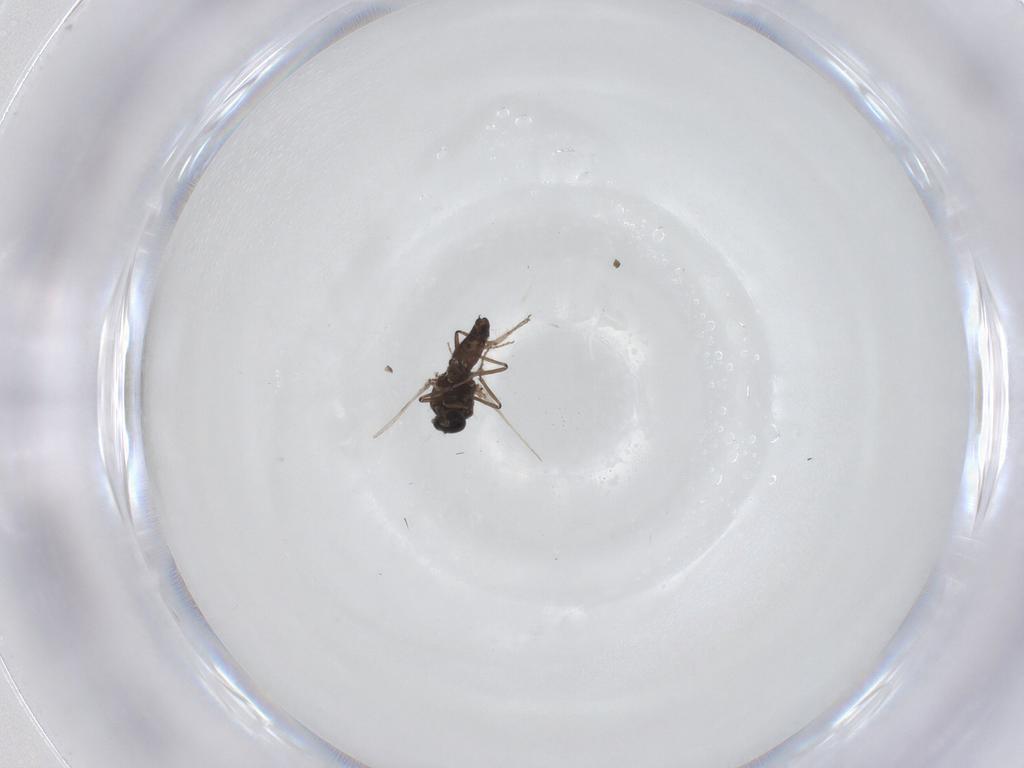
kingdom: Animalia
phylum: Arthropoda
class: Insecta
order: Diptera
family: Ceratopogonidae
